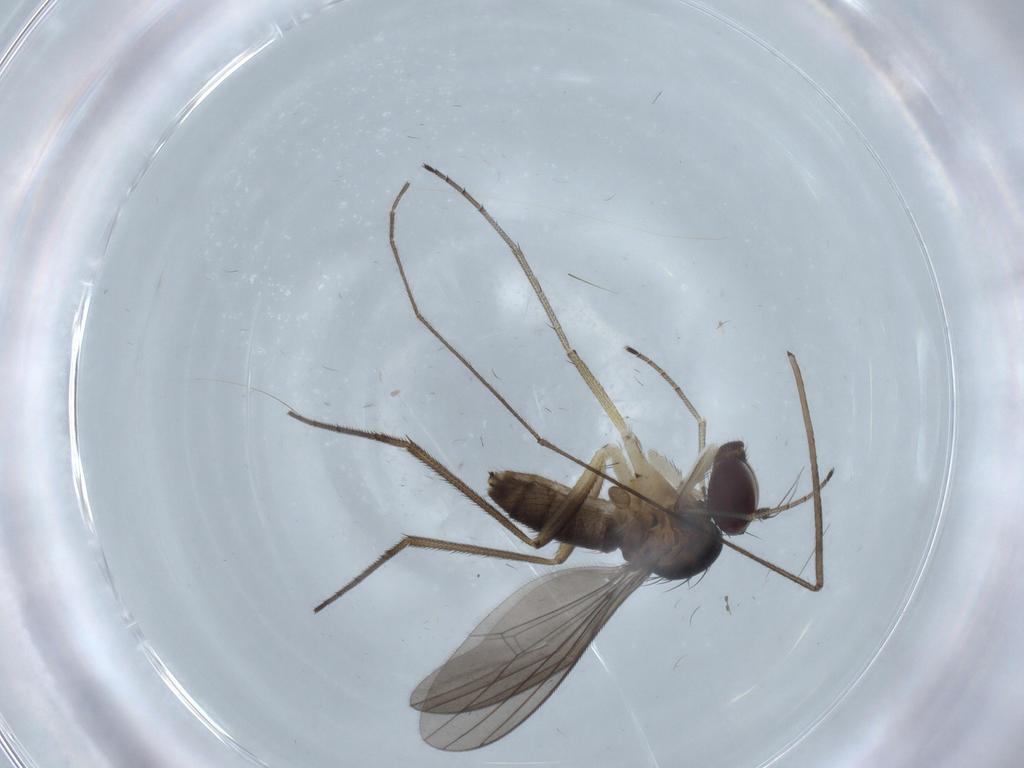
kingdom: Animalia
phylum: Arthropoda
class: Insecta
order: Diptera
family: Dolichopodidae
